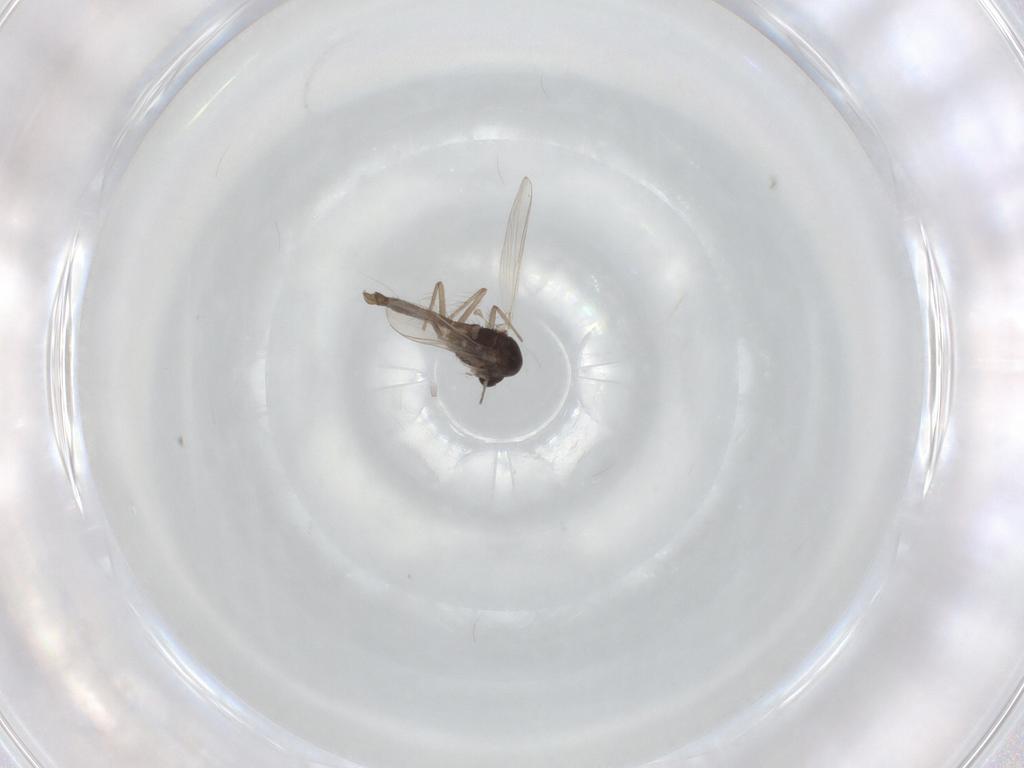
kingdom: Animalia
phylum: Arthropoda
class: Insecta
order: Diptera
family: Chironomidae
